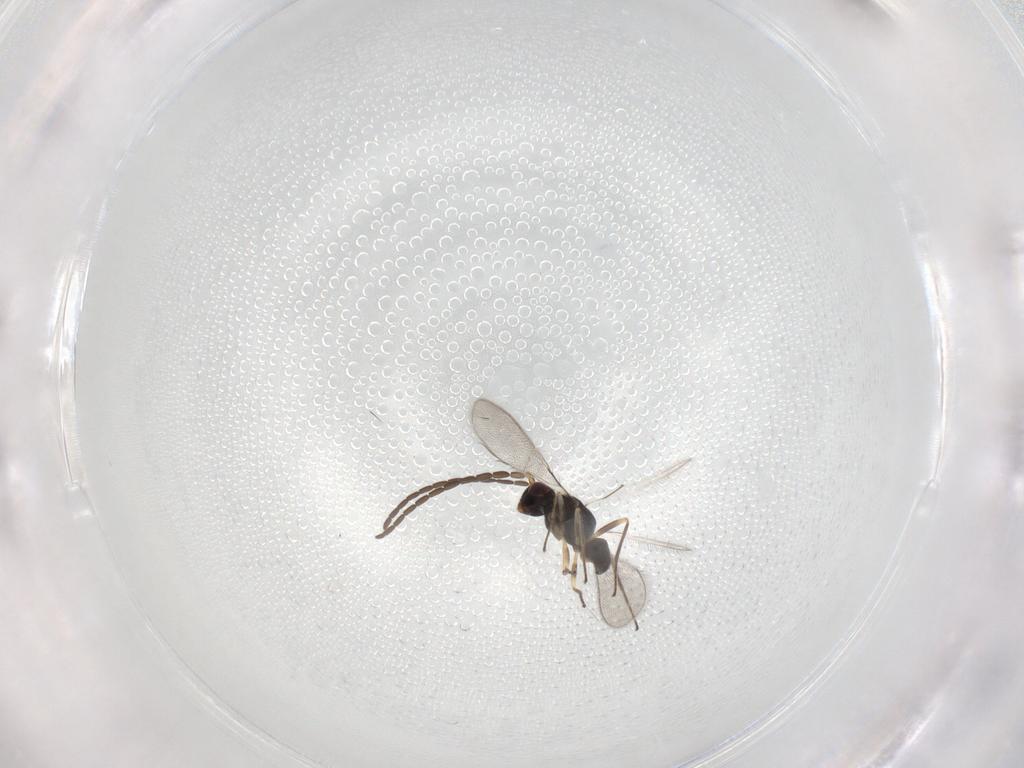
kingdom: Animalia
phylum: Arthropoda
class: Insecta
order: Hymenoptera
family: Mymaridae
